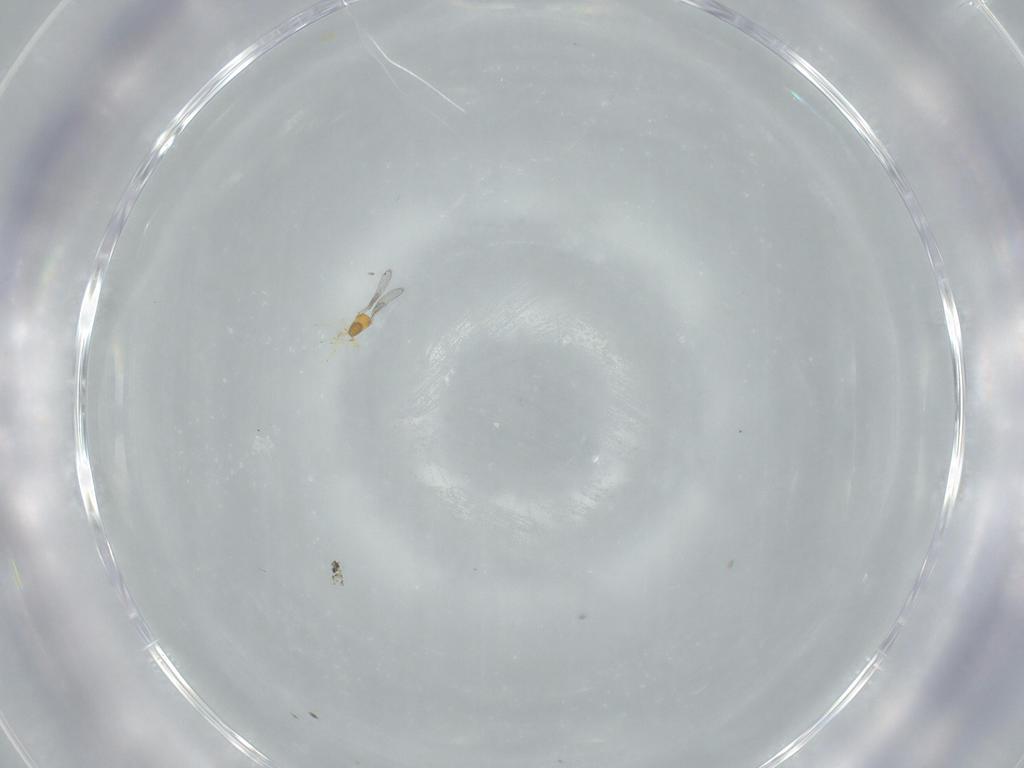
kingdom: Animalia
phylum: Arthropoda
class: Insecta
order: Hymenoptera
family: Trichogrammatidae
